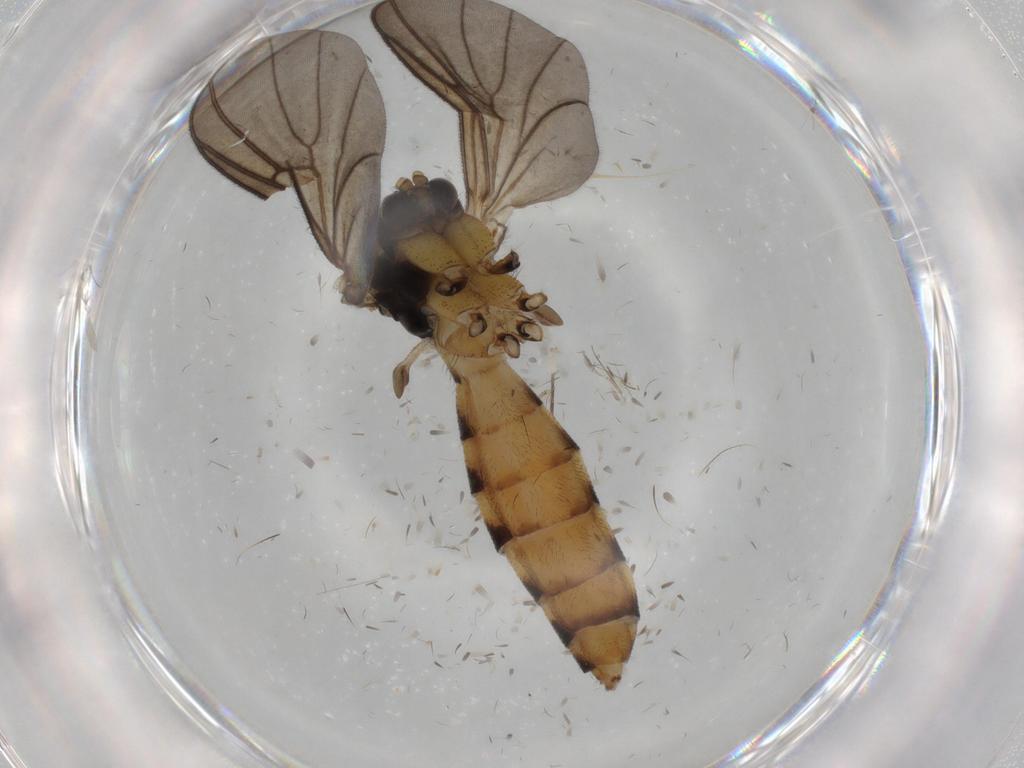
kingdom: Animalia
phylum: Arthropoda
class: Insecta
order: Diptera
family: Mycetophilidae
